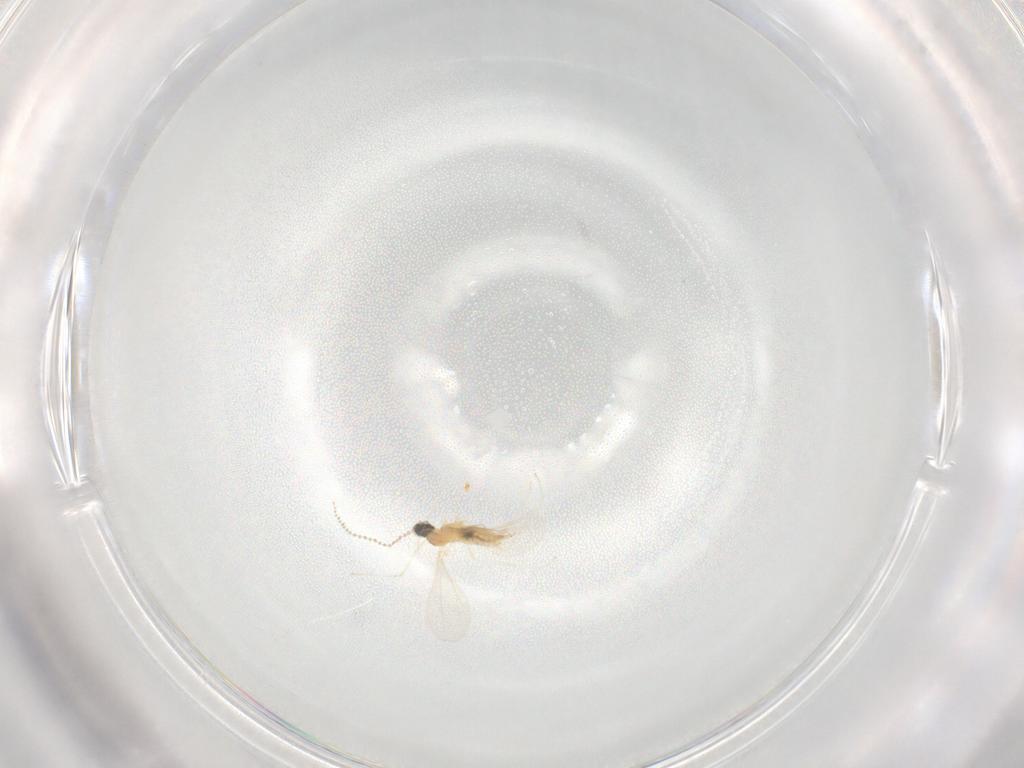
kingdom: Animalia
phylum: Arthropoda
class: Insecta
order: Diptera
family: Cecidomyiidae
